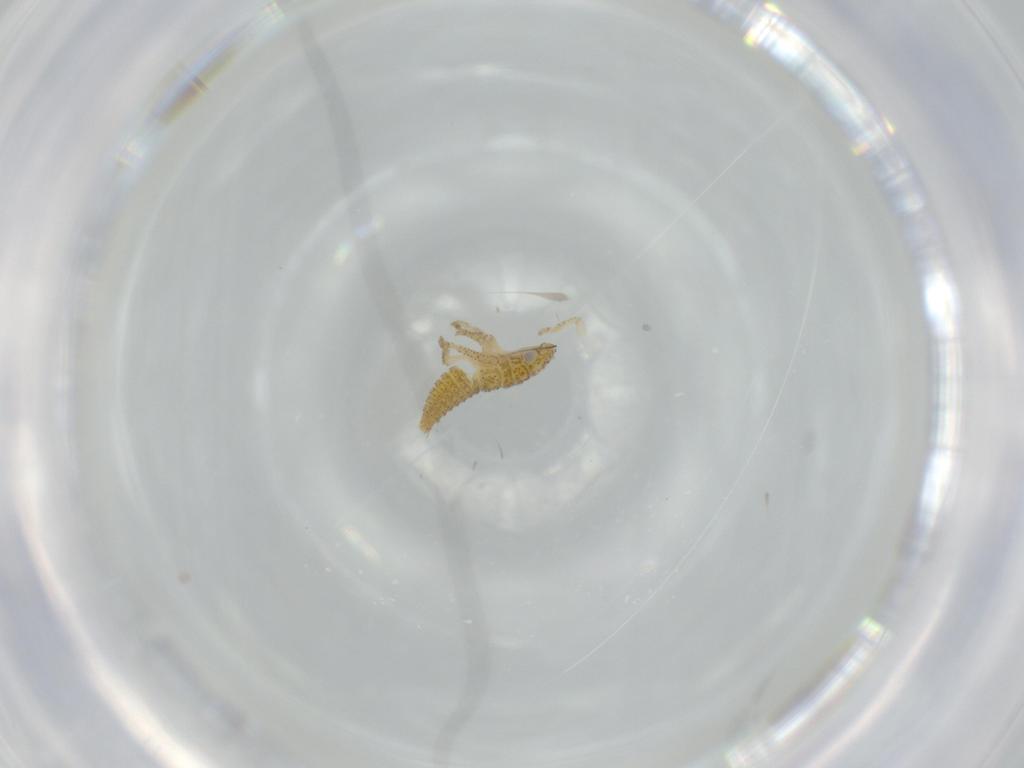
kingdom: Animalia
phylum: Arthropoda
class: Insecta
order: Hemiptera
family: Cicadellidae
